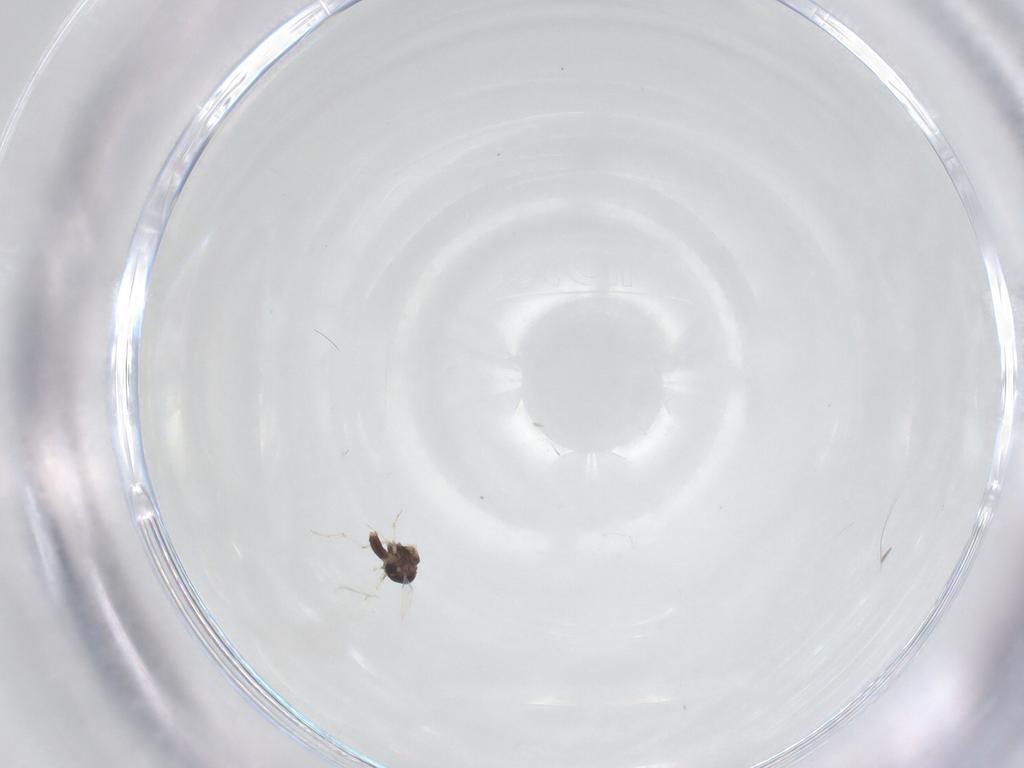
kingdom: Animalia
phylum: Arthropoda
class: Insecta
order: Diptera
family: Chironomidae
